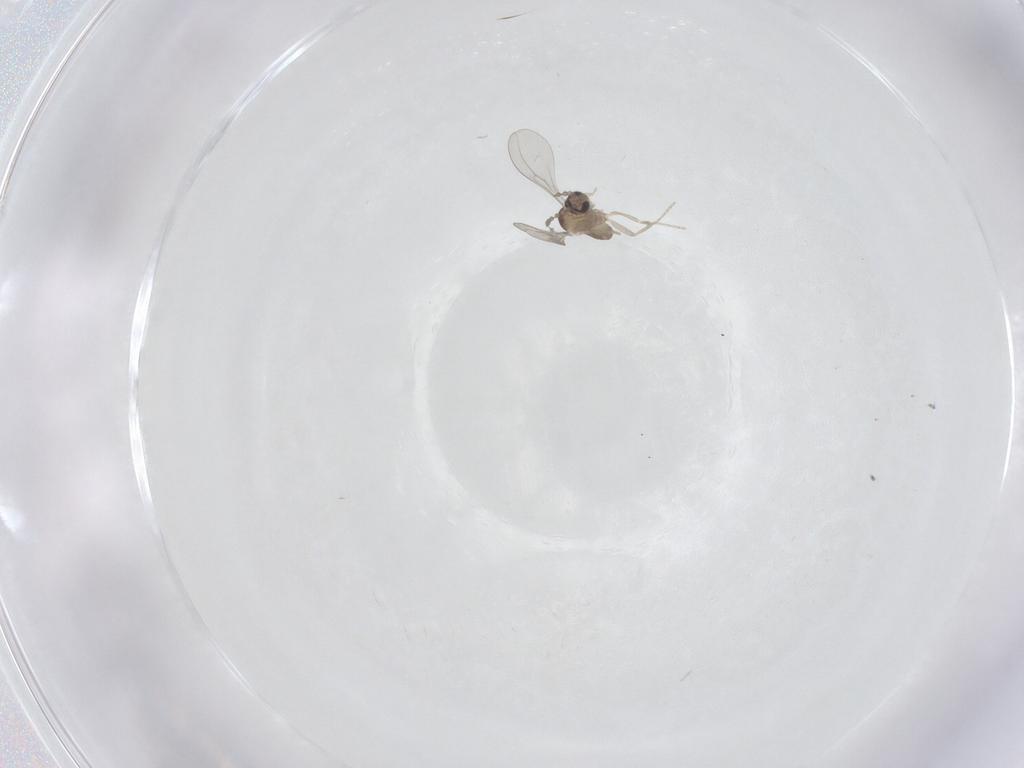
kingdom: Animalia
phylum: Arthropoda
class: Insecta
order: Diptera
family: Cecidomyiidae
